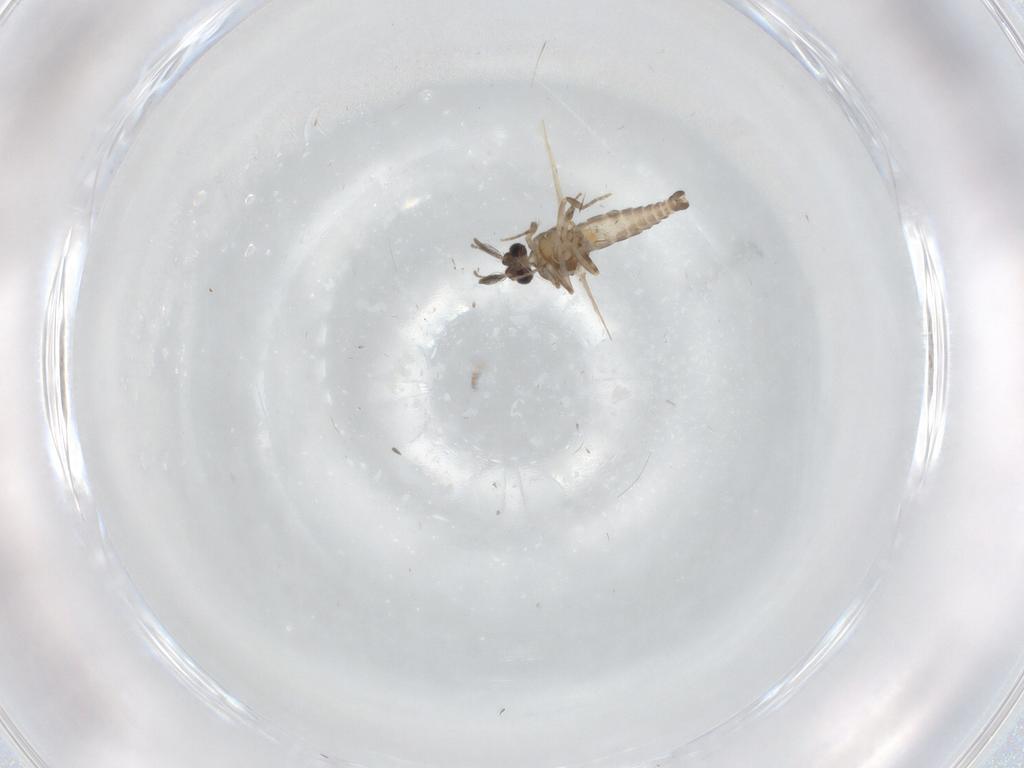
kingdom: Animalia
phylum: Arthropoda
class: Insecta
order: Diptera
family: Ceratopogonidae
